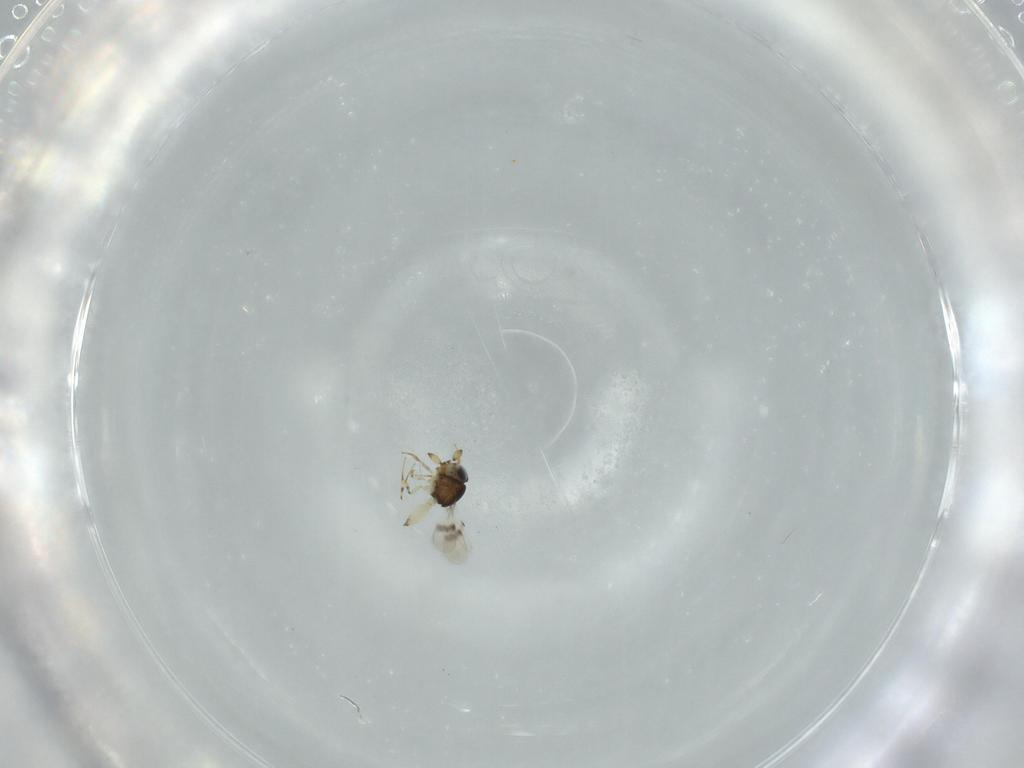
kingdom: Animalia
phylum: Arthropoda
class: Insecta
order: Hymenoptera
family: Scelionidae
